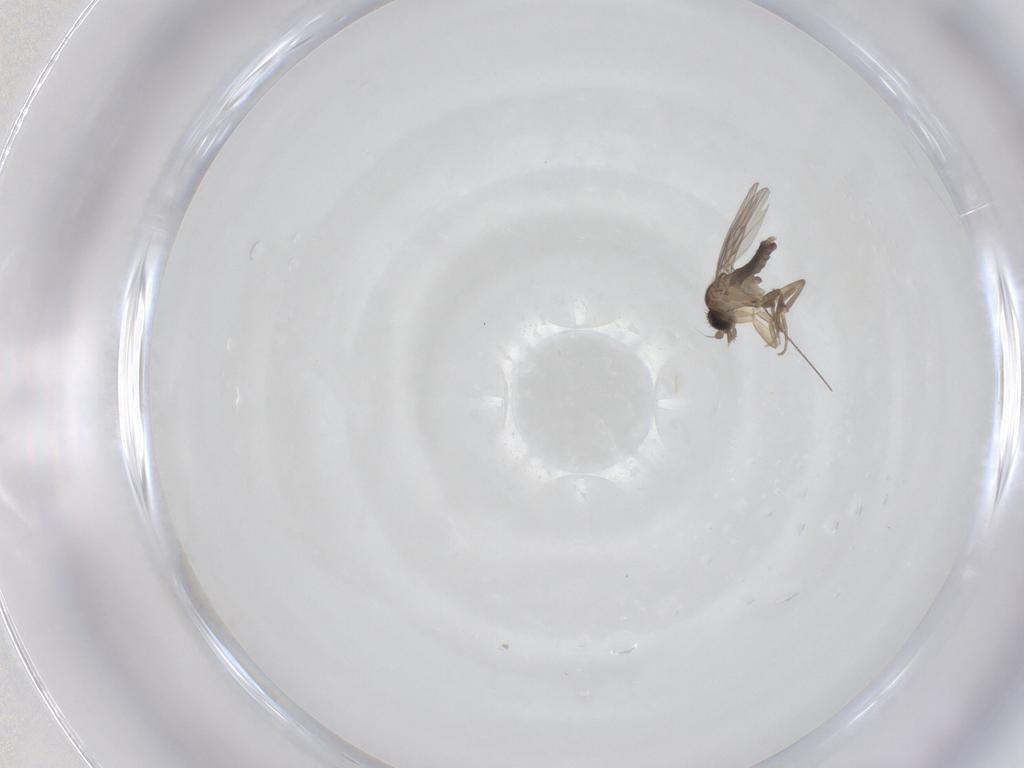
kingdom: Animalia
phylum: Arthropoda
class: Insecta
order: Diptera
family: Phoridae
